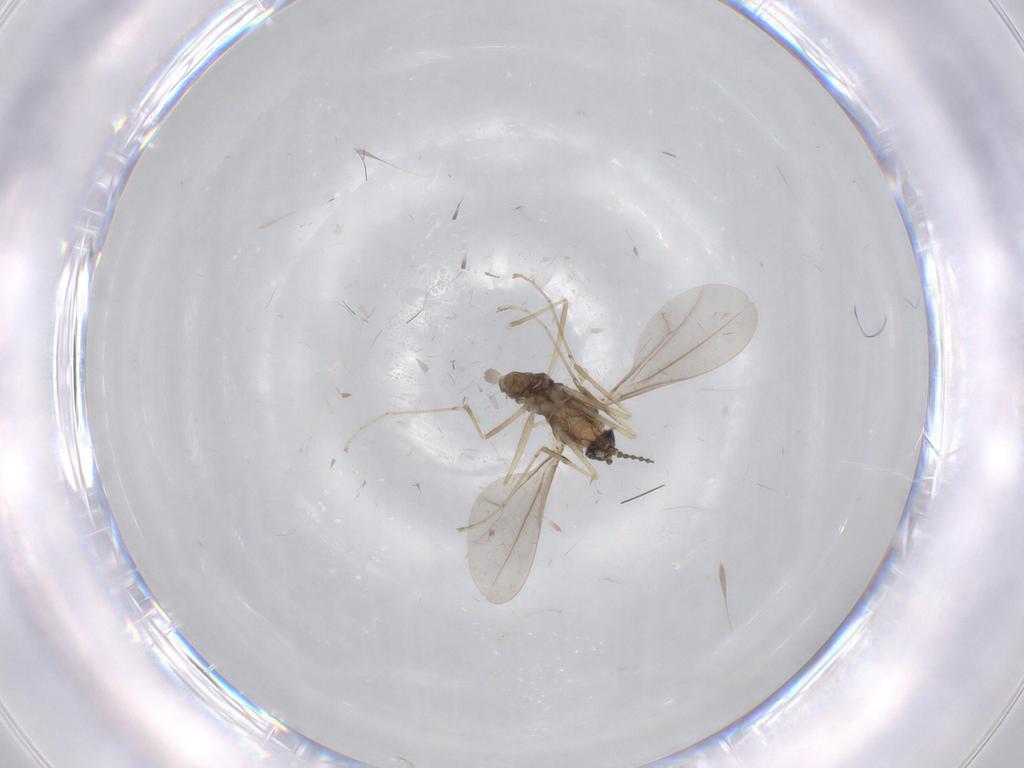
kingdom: Animalia
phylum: Arthropoda
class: Insecta
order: Diptera
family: Cecidomyiidae
